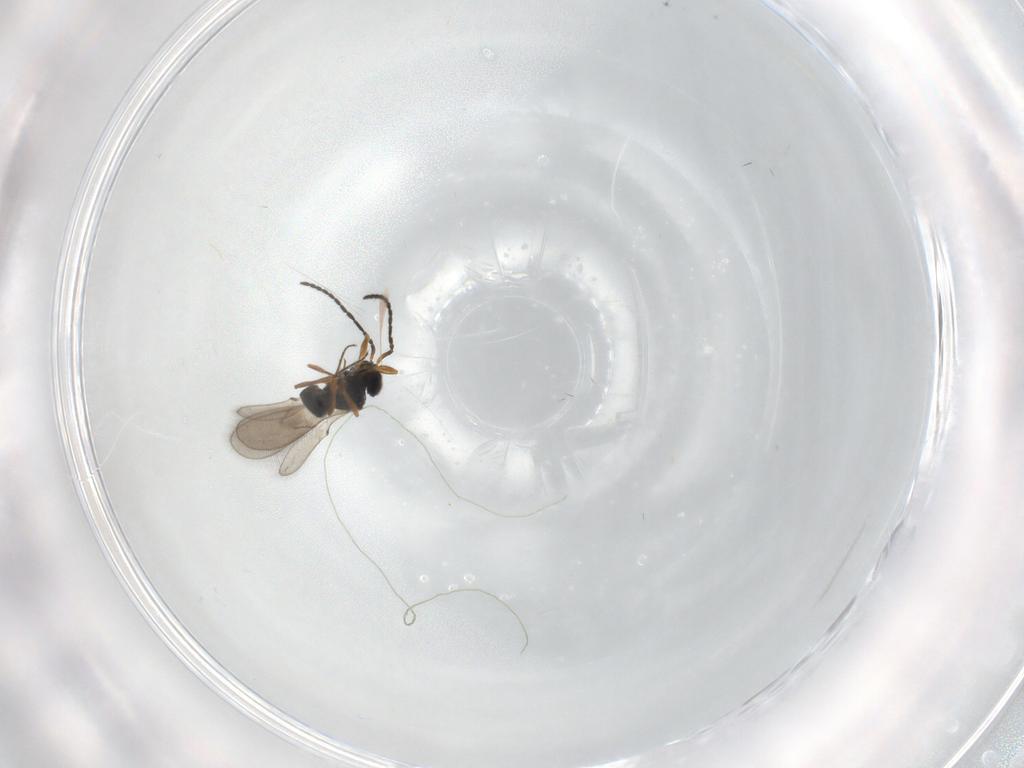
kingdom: Animalia
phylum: Arthropoda
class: Insecta
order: Hymenoptera
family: Scelionidae
